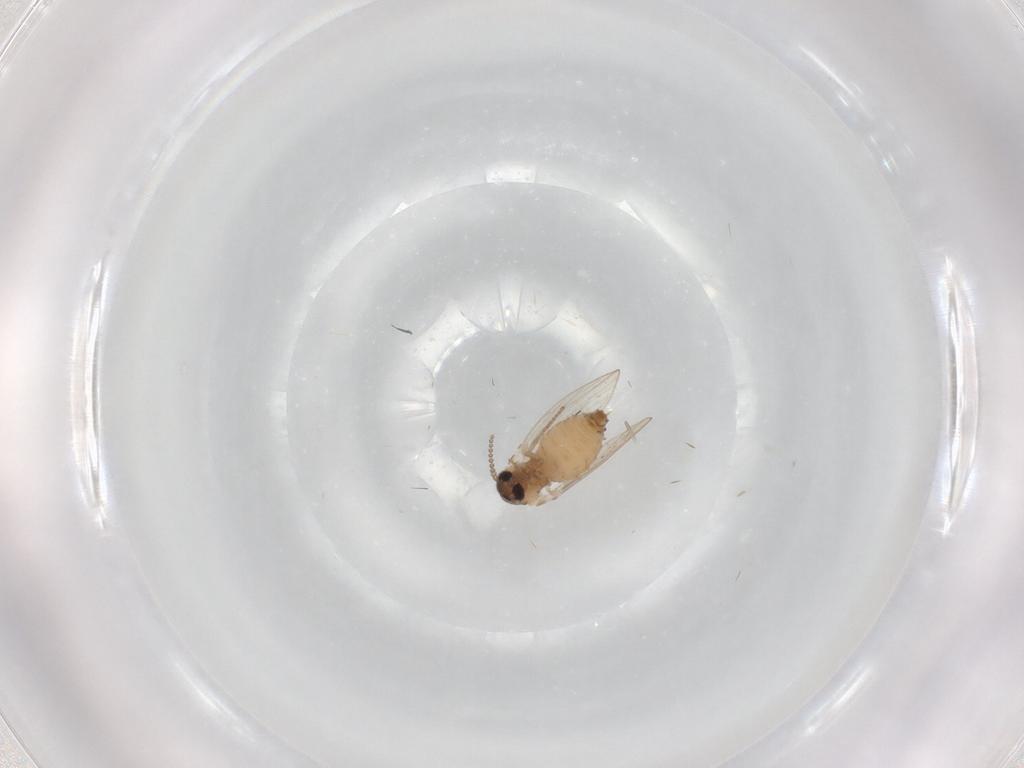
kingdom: Animalia
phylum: Arthropoda
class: Insecta
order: Diptera
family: Psychodidae
